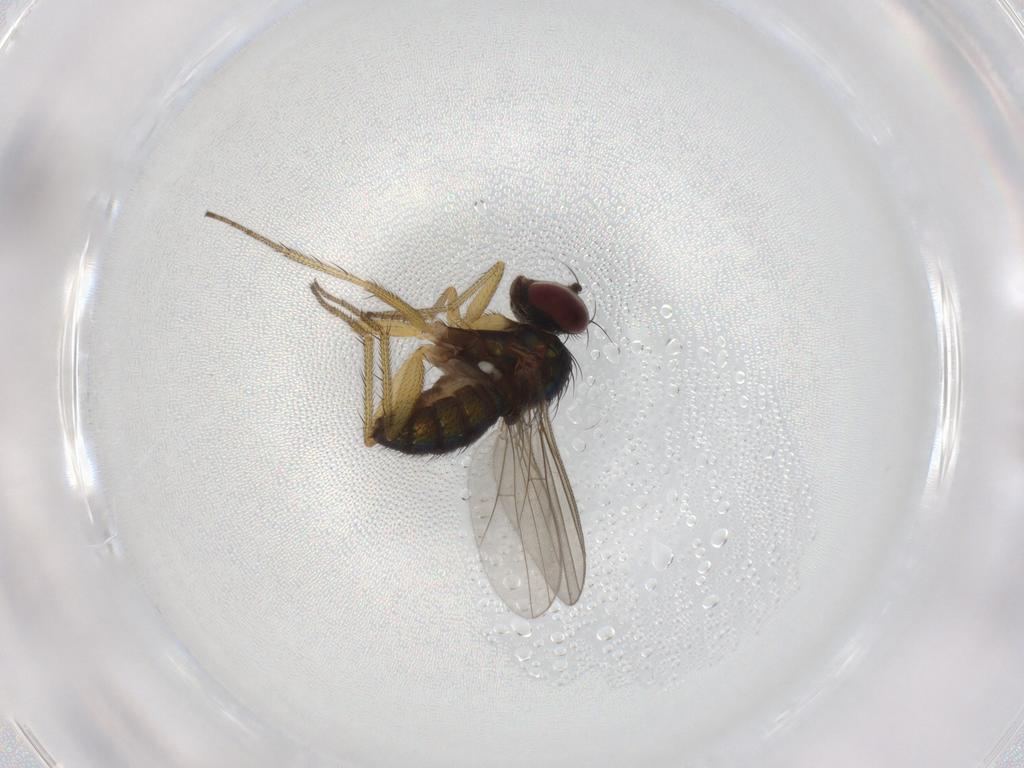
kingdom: Animalia
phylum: Arthropoda
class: Insecta
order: Diptera
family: Dolichopodidae
